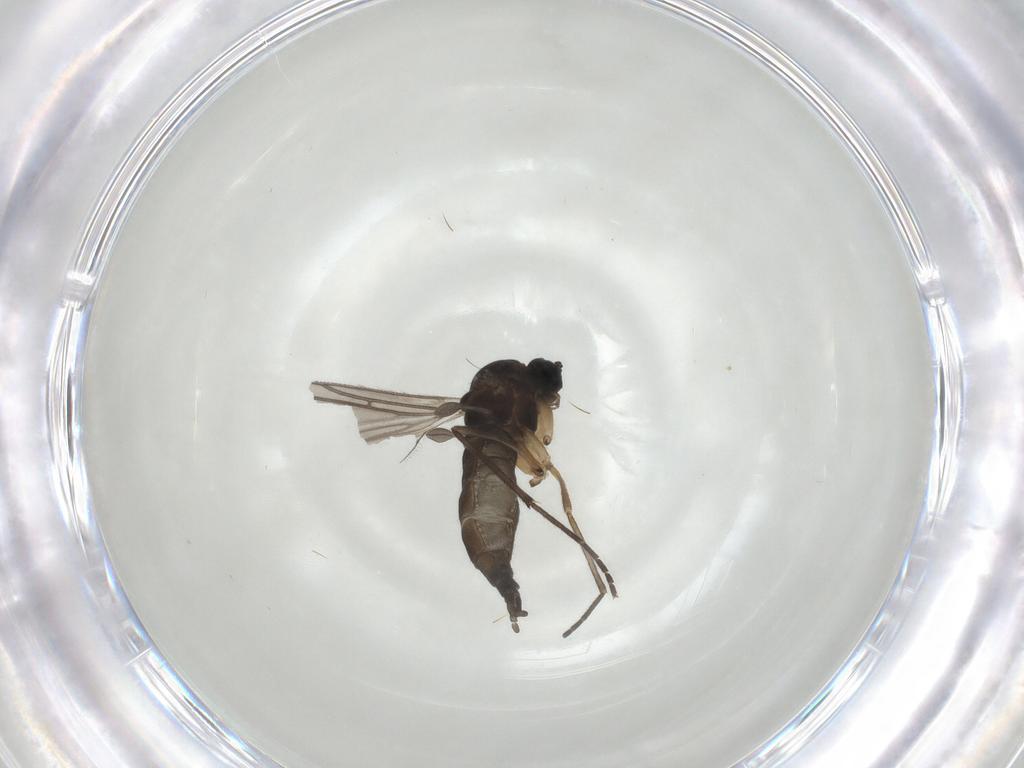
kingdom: Animalia
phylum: Arthropoda
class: Insecta
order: Diptera
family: Sciaridae
